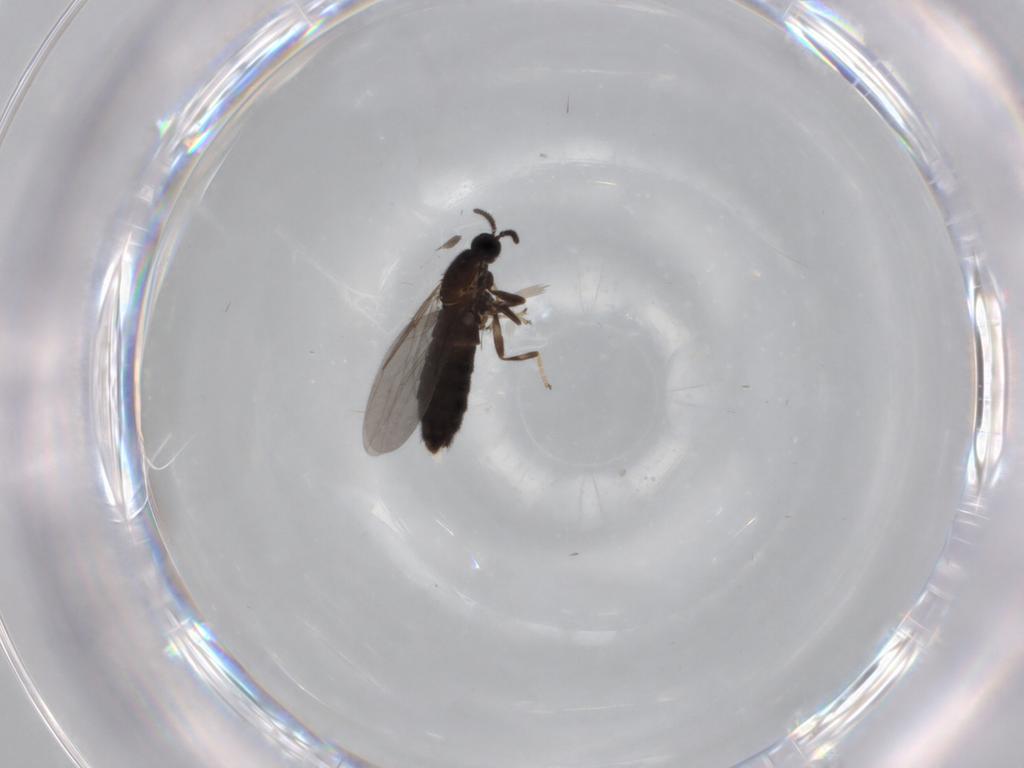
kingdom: Animalia
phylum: Arthropoda
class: Insecta
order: Diptera
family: Scatopsidae
